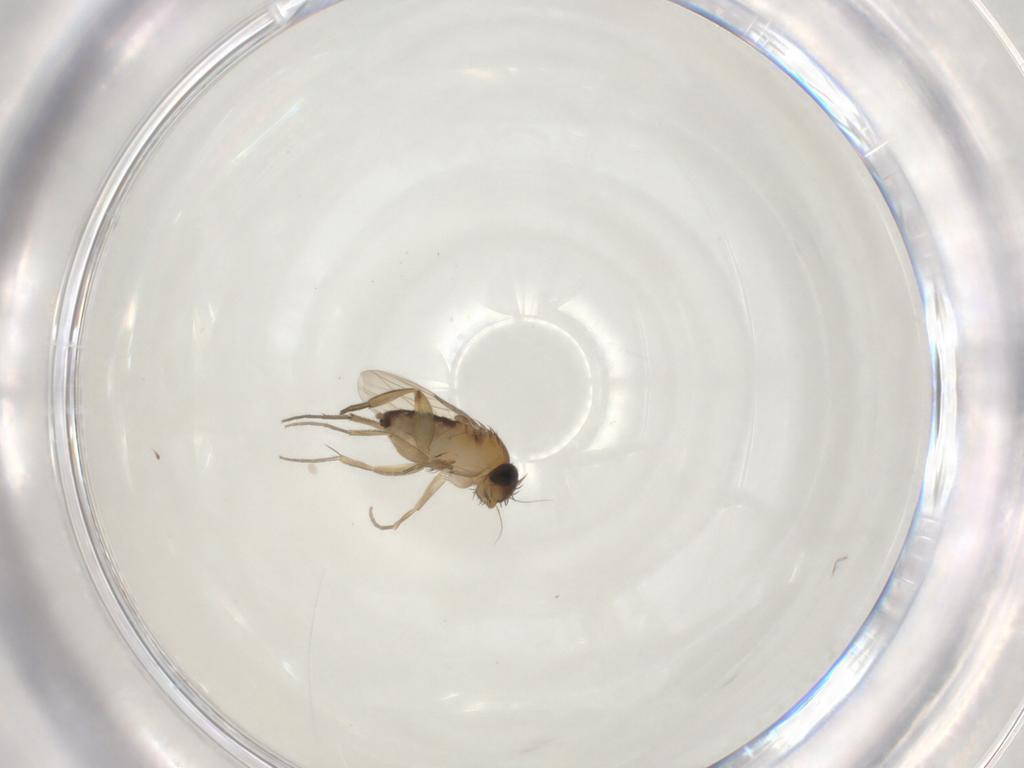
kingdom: Animalia
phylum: Arthropoda
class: Insecta
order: Diptera
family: Phoridae
